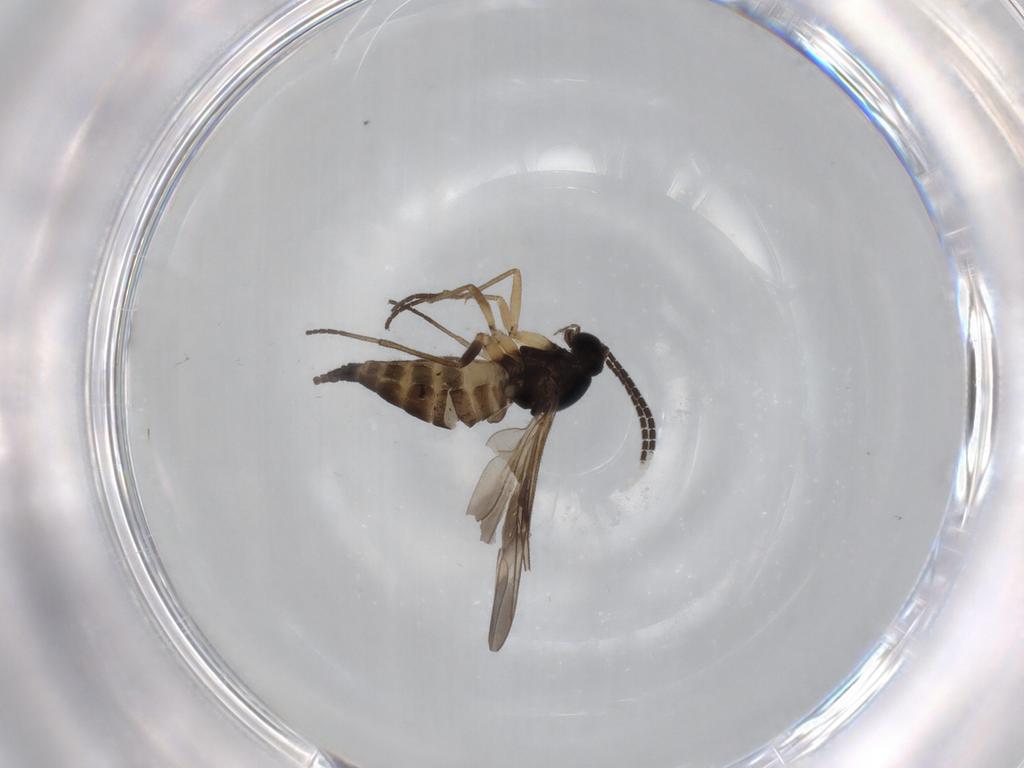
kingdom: Animalia
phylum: Arthropoda
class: Insecta
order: Diptera
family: Sciaridae
